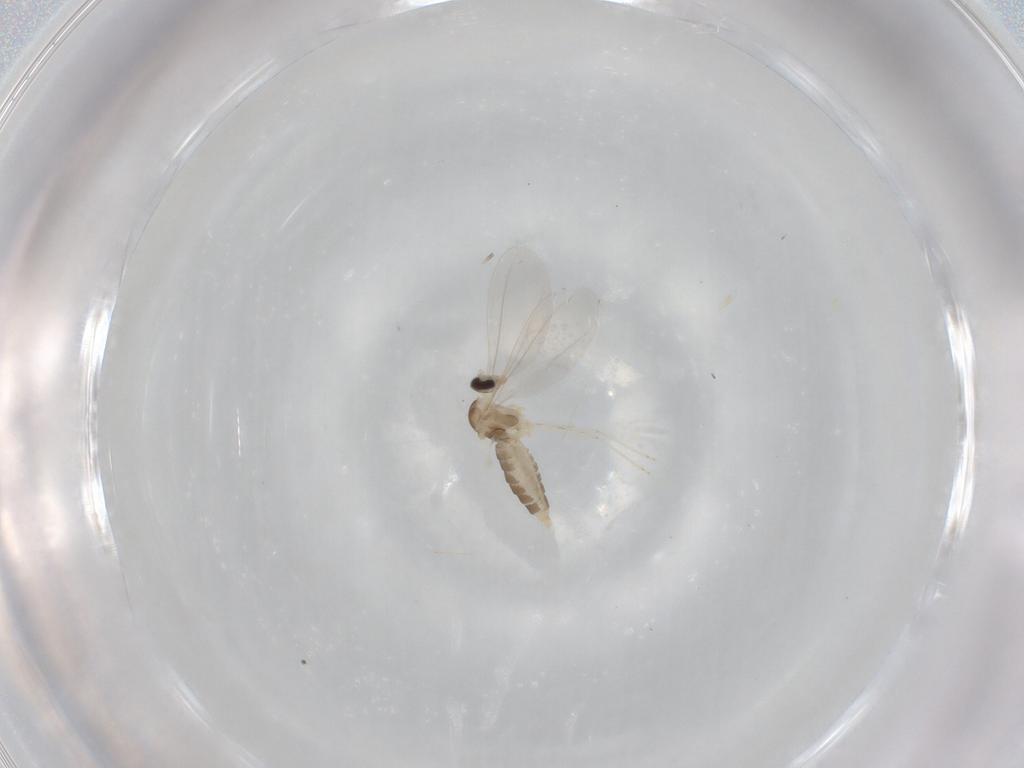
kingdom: Animalia
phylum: Arthropoda
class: Insecta
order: Diptera
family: Cecidomyiidae
